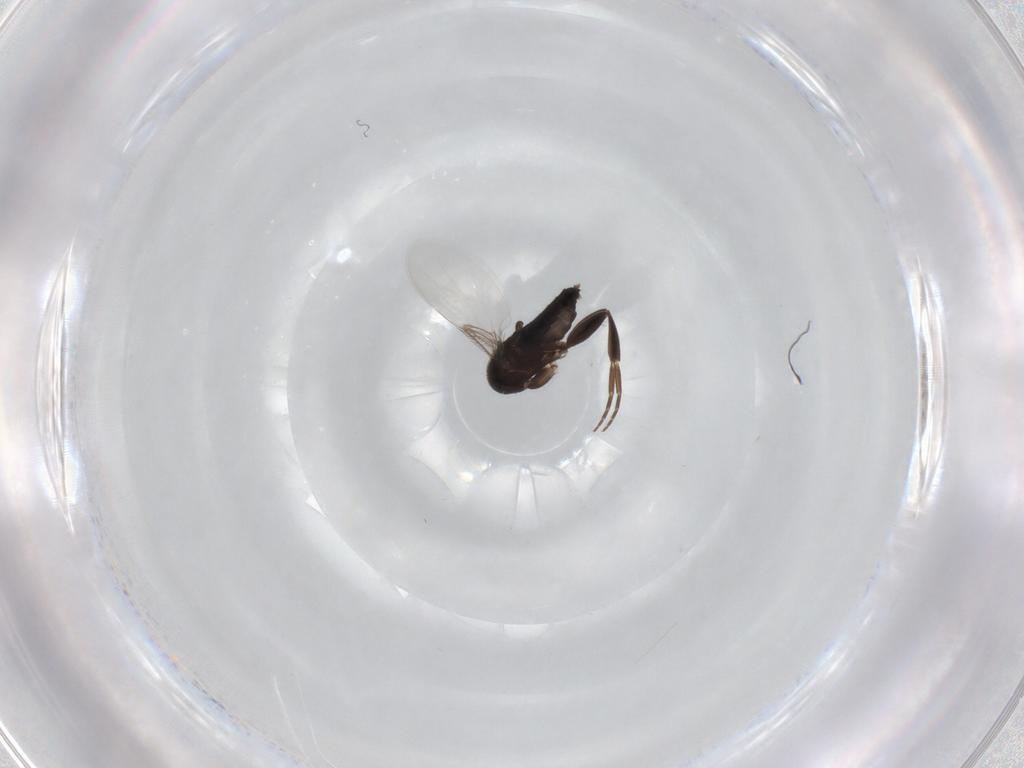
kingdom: Animalia
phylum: Arthropoda
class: Insecta
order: Diptera
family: Phoridae
